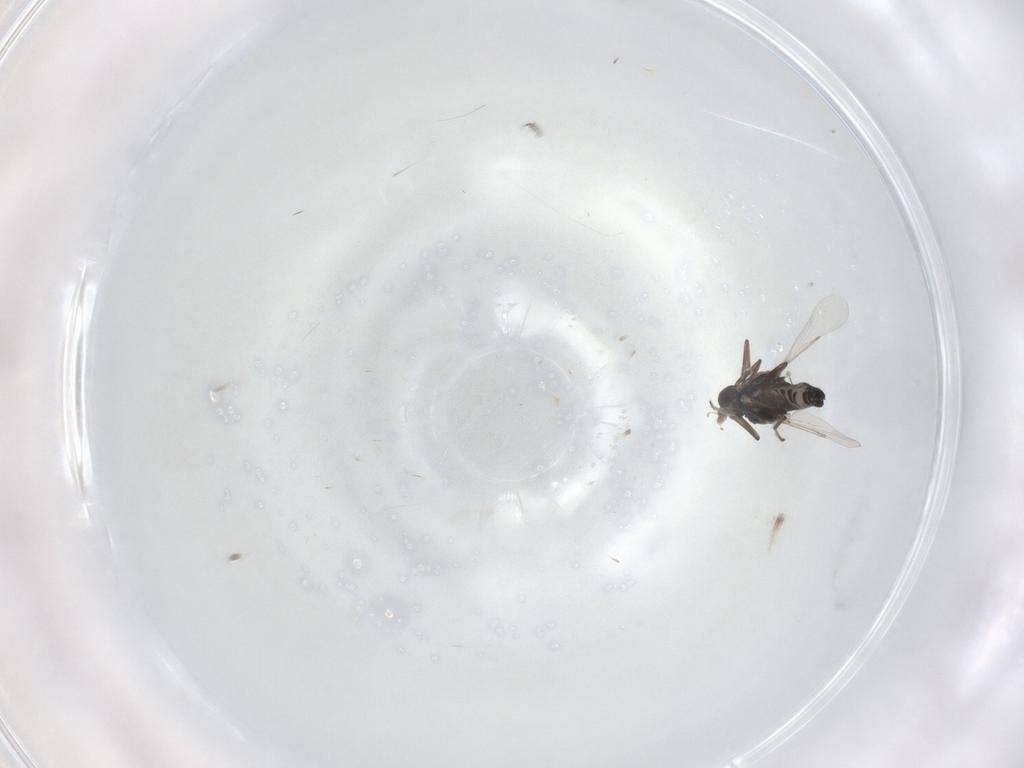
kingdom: Animalia
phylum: Arthropoda
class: Insecta
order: Diptera
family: Ceratopogonidae
